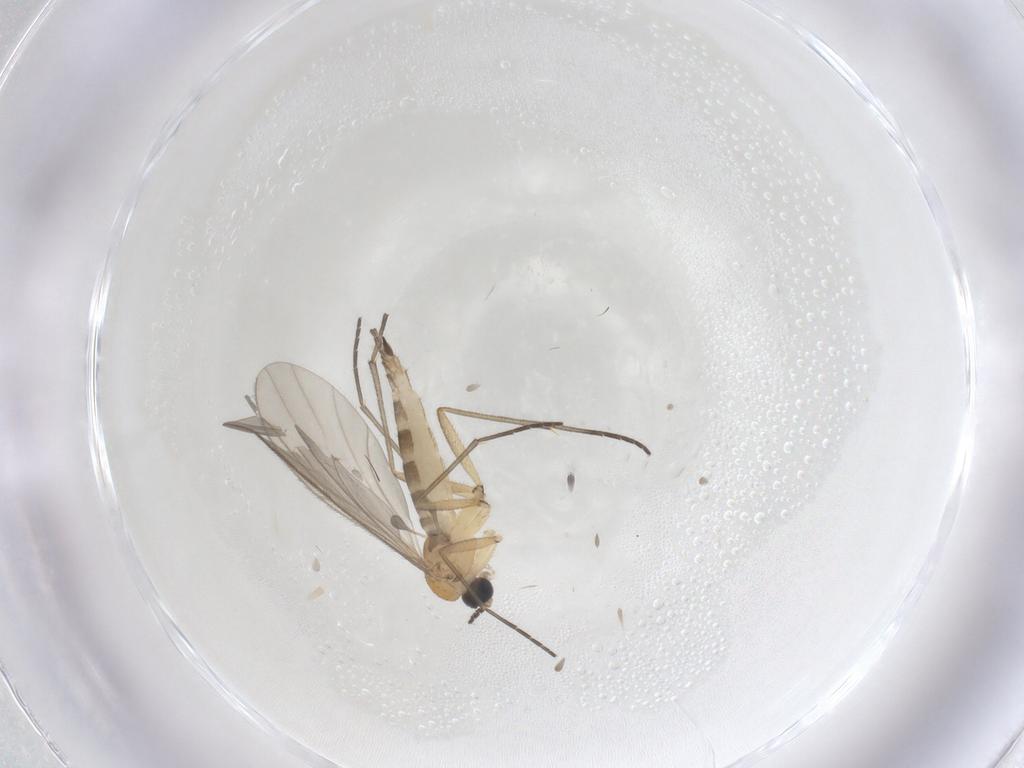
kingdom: Animalia
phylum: Arthropoda
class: Insecta
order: Diptera
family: Sciaridae
